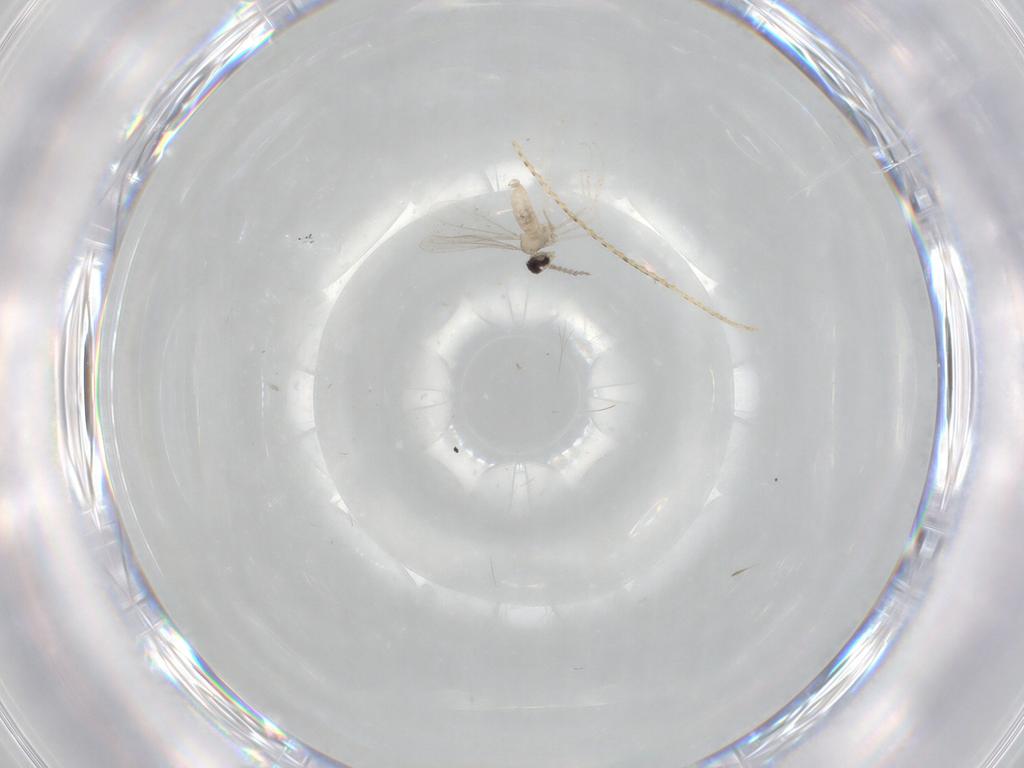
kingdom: Animalia
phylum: Arthropoda
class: Insecta
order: Diptera
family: Cecidomyiidae
